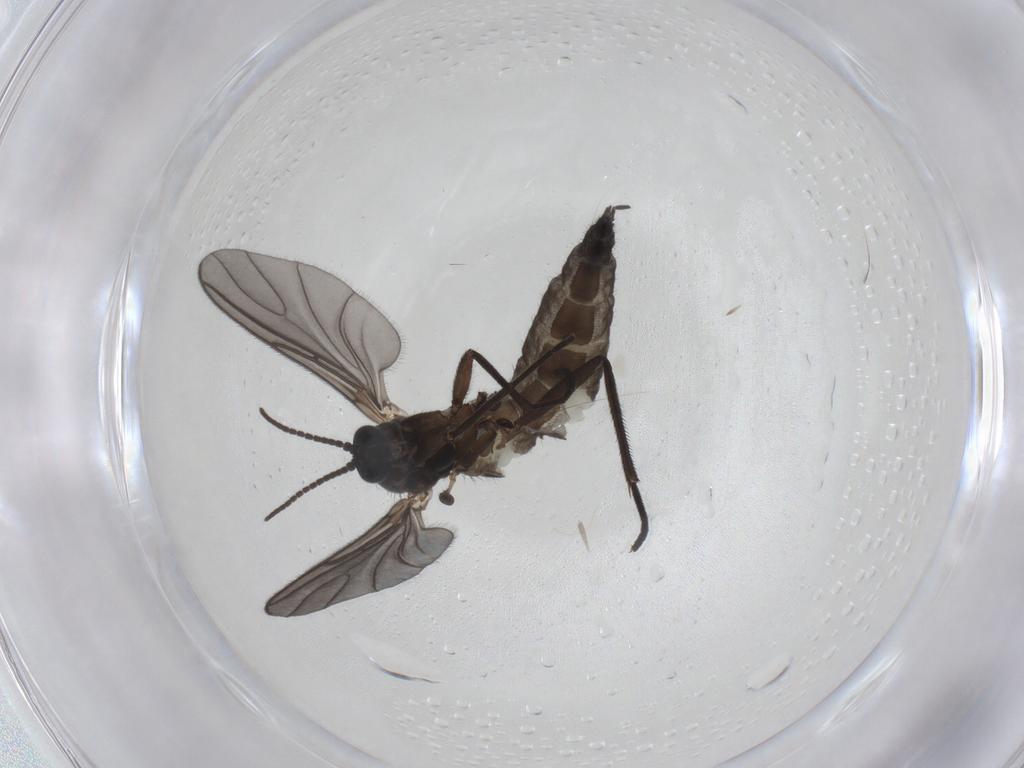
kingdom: Animalia
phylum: Arthropoda
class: Insecta
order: Diptera
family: Sciaridae
